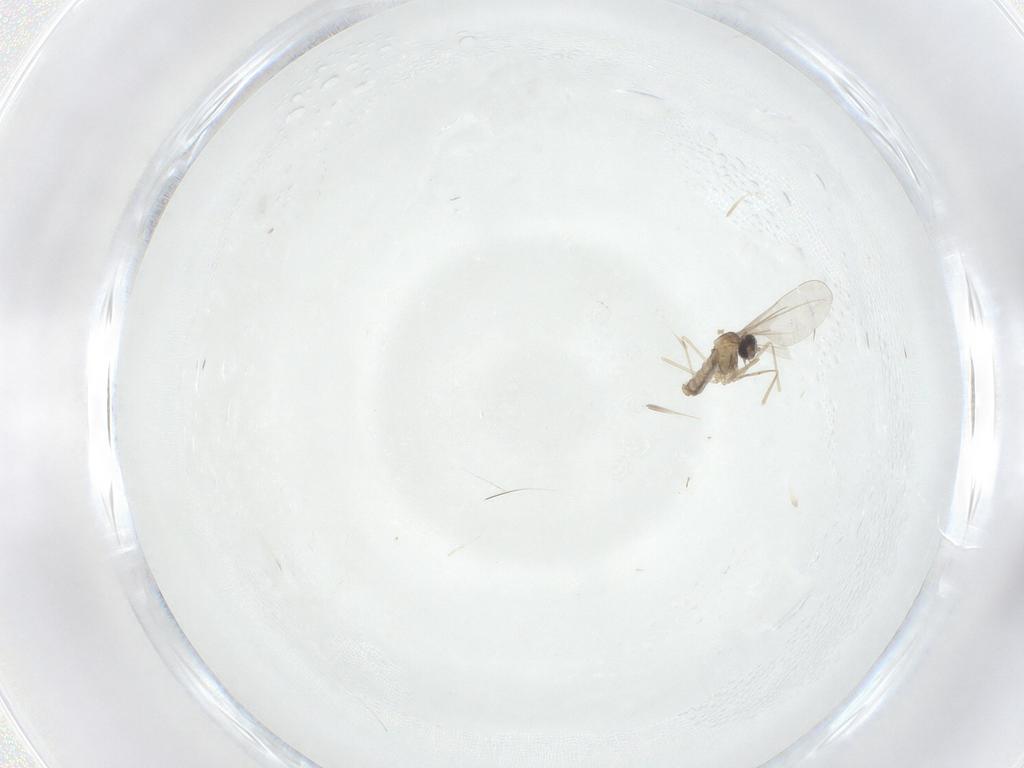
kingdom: Animalia
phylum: Arthropoda
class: Insecta
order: Diptera
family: Cecidomyiidae
